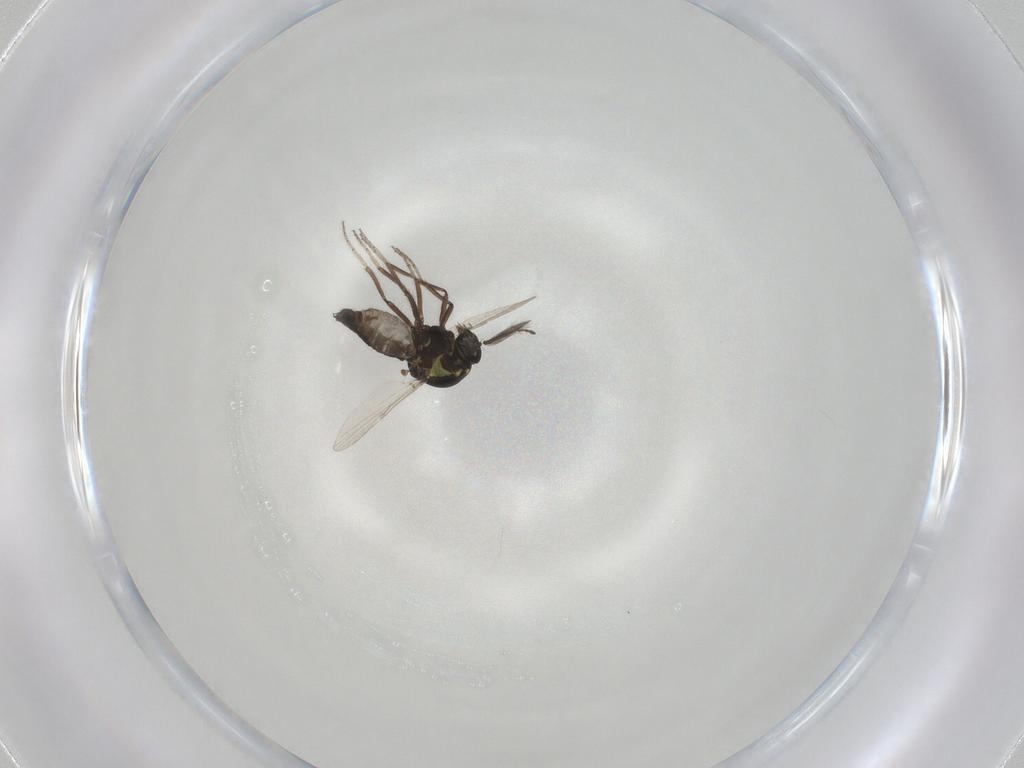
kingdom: Animalia
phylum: Arthropoda
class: Insecta
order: Diptera
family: Ceratopogonidae
